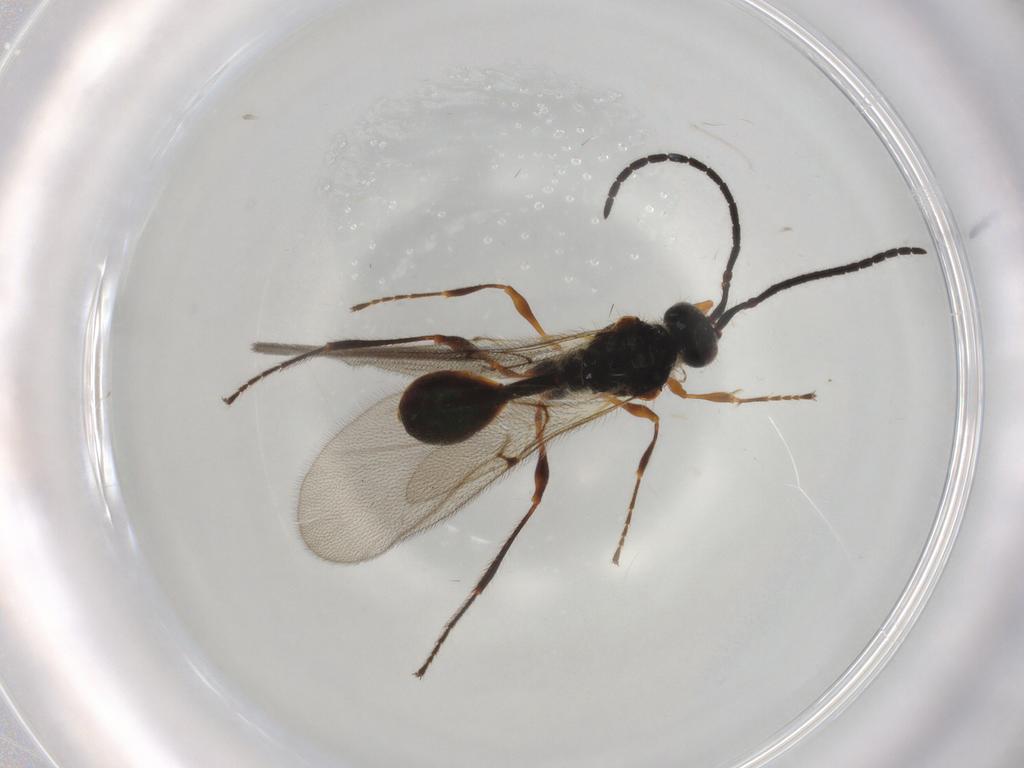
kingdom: Animalia
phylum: Arthropoda
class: Insecta
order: Hymenoptera
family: Diapriidae
